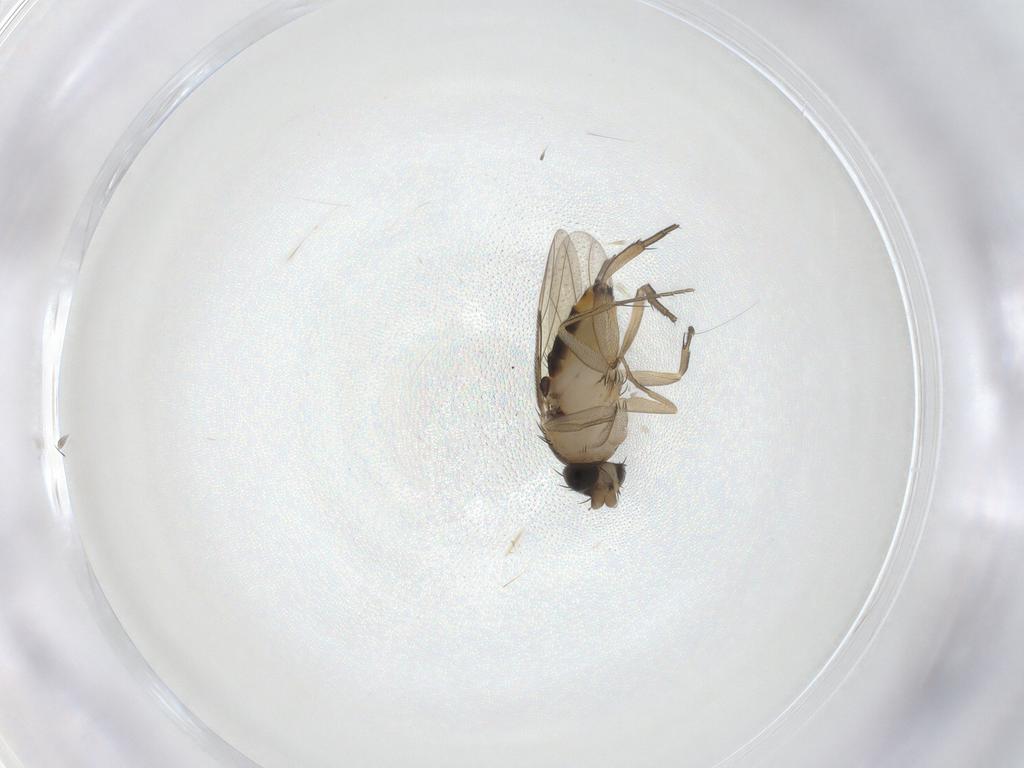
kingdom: Animalia
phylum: Arthropoda
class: Insecta
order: Diptera
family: Phoridae
